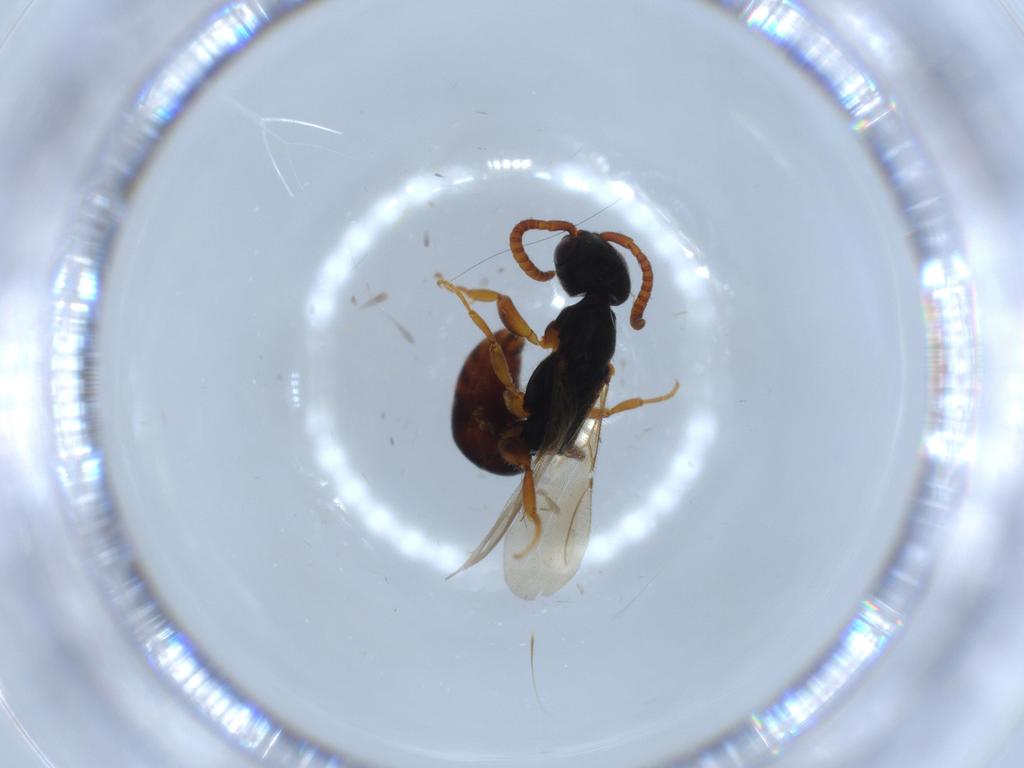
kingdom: Animalia
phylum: Arthropoda
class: Insecta
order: Hymenoptera
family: Bethylidae
